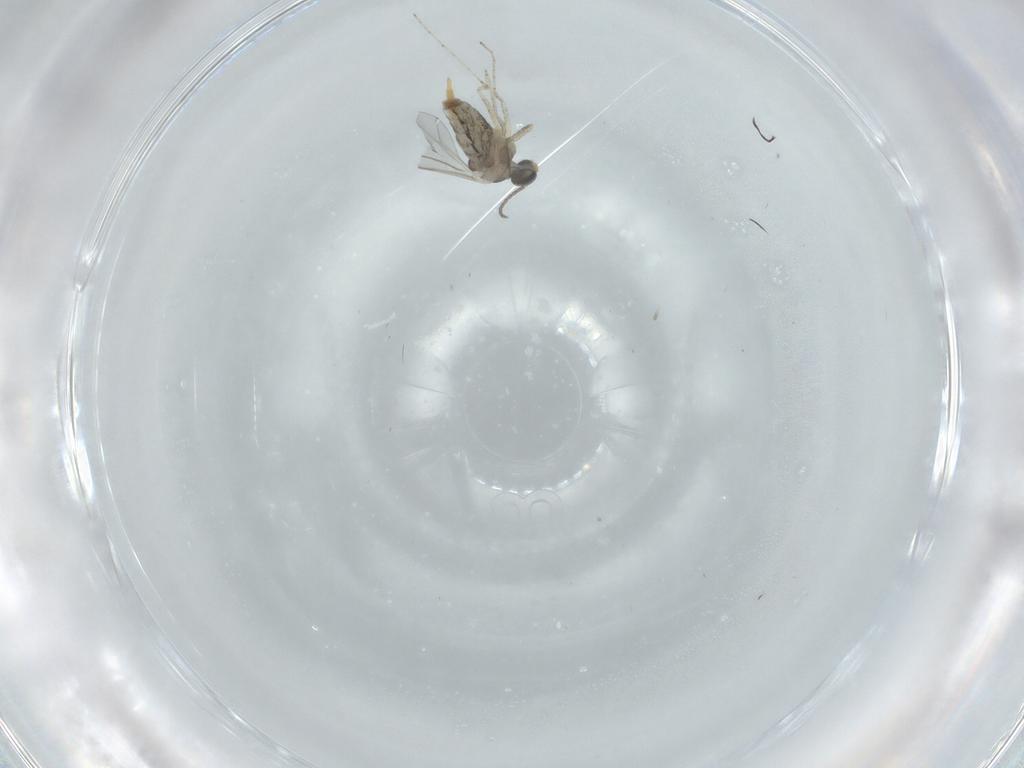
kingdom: Animalia
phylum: Arthropoda
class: Insecta
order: Diptera
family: Cecidomyiidae
